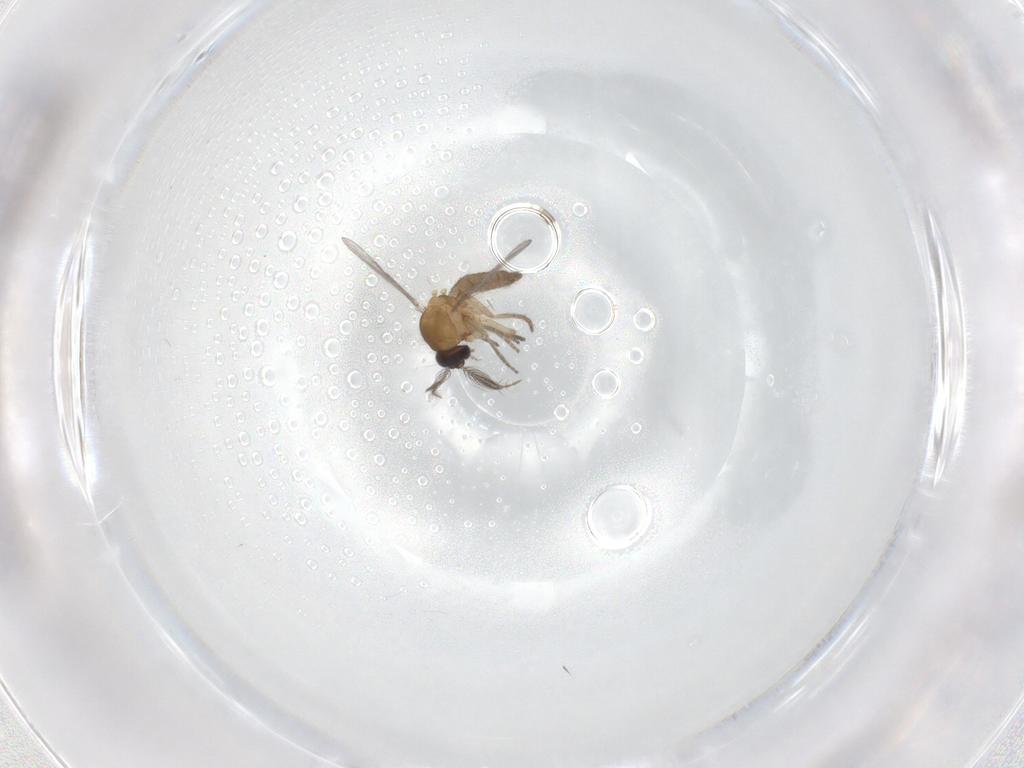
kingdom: Animalia
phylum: Arthropoda
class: Insecta
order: Diptera
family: Ceratopogonidae
